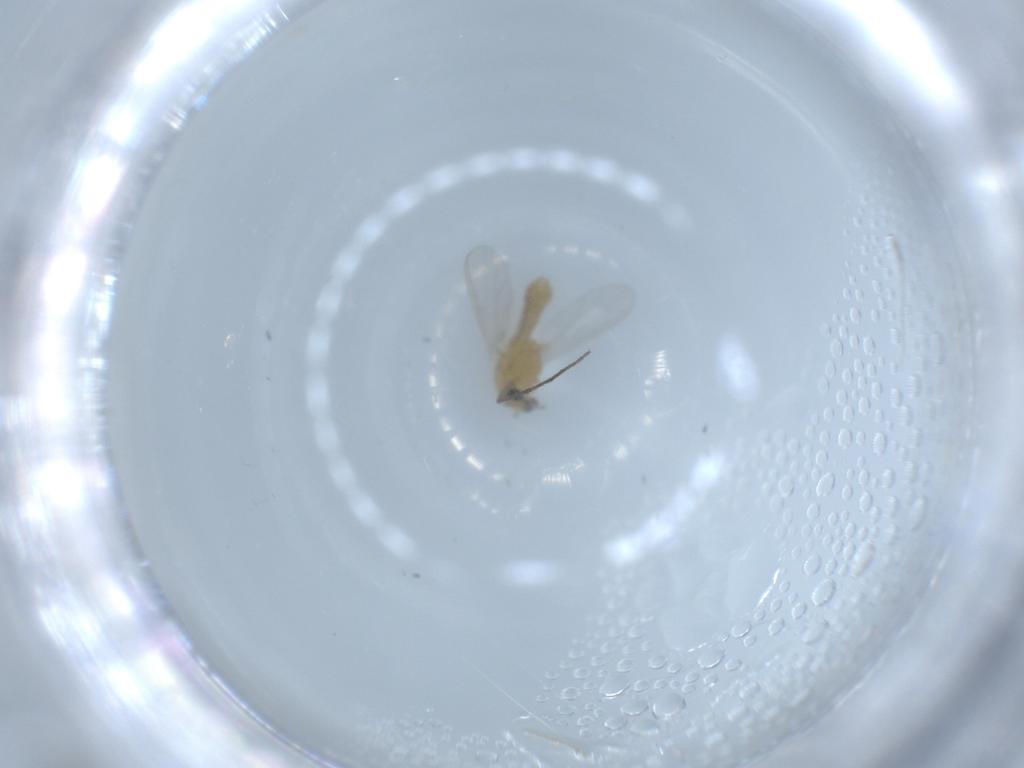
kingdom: Animalia
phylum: Arthropoda
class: Insecta
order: Diptera
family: Chironomidae
